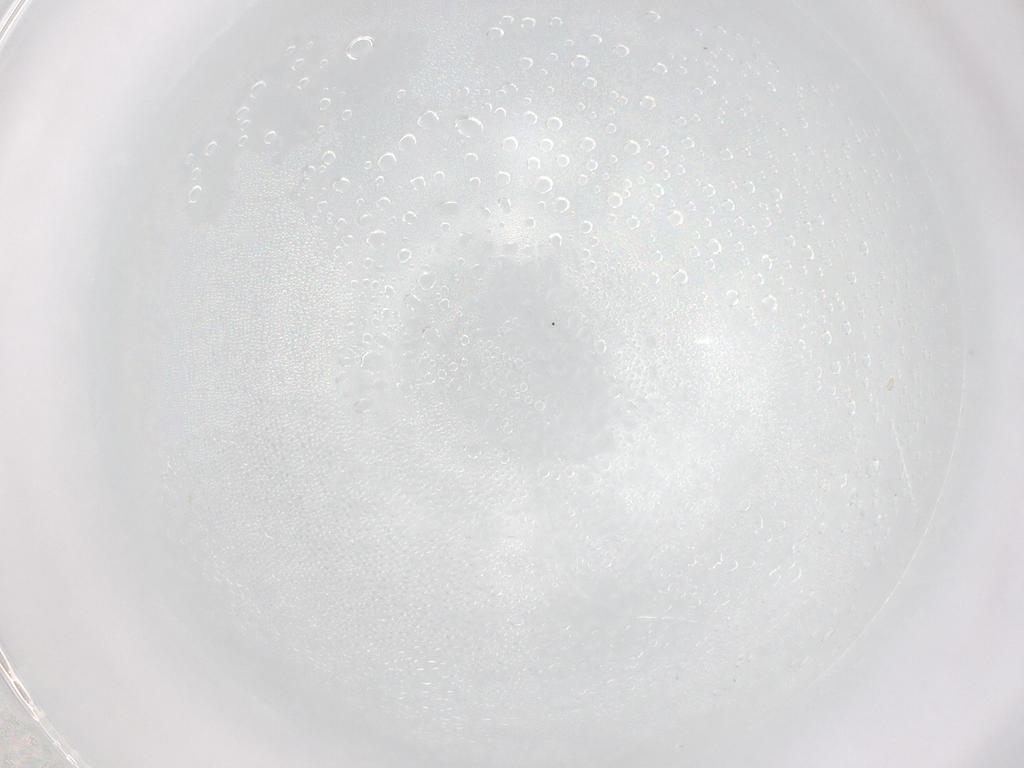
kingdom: Animalia
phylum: Arthropoda
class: Insecta
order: Diptera
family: Cecidomyiidae
